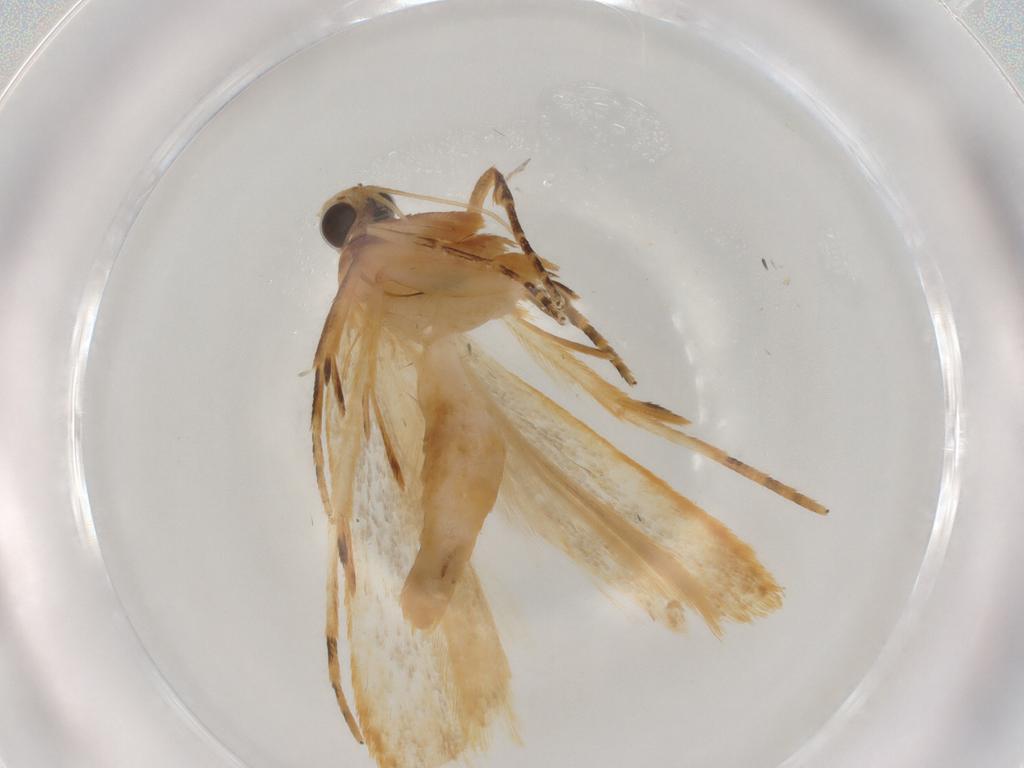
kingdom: Animalia
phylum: Arthropoda
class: Insecta
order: Lepidoptera
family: Gelechiidae
